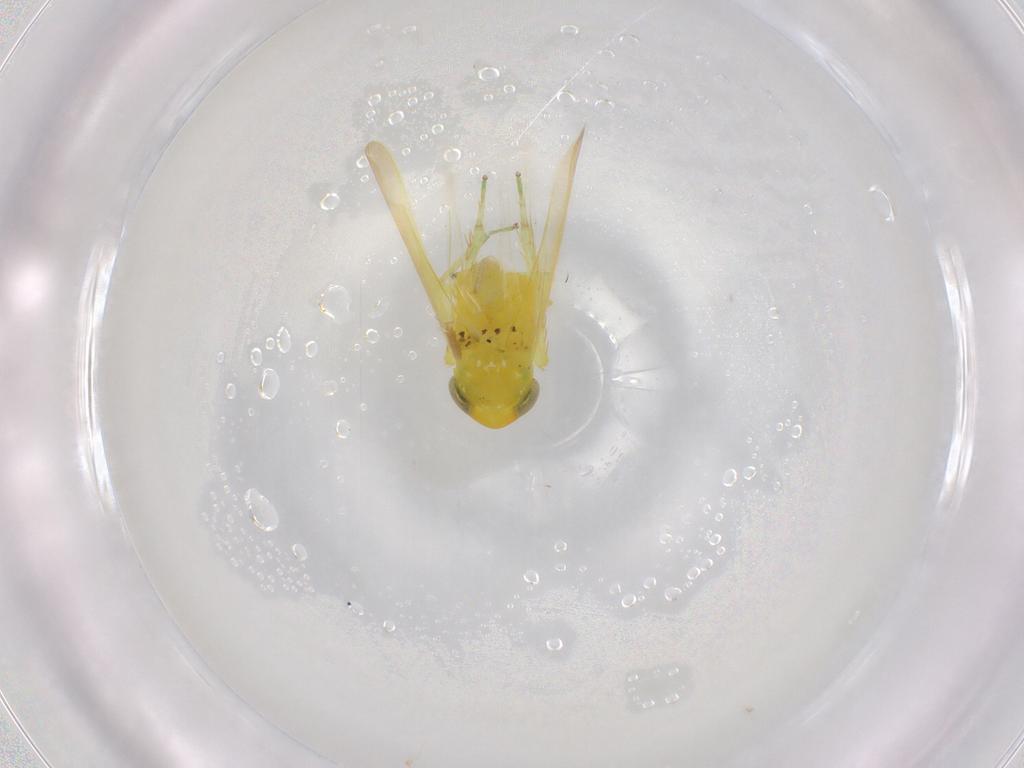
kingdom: Animalia
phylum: Arthropoda
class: Insecta
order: Hemiptera
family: Cicadellidae
